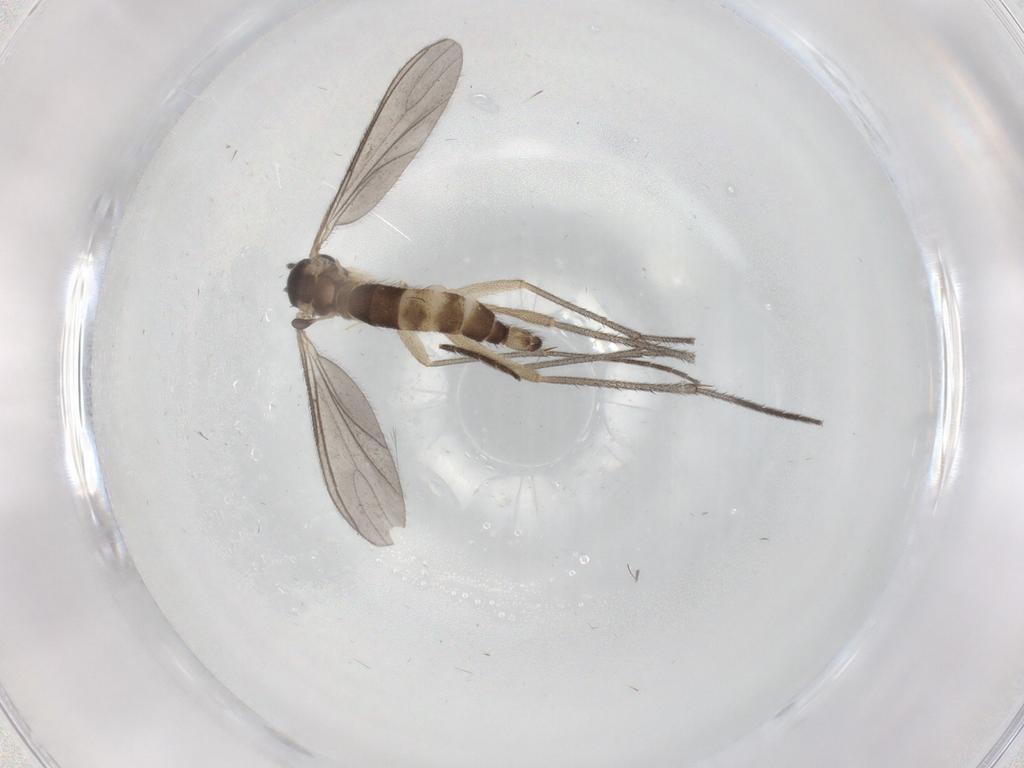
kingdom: Animalia
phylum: Arthropoda
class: Insecta
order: Diptera
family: Sciaridae
